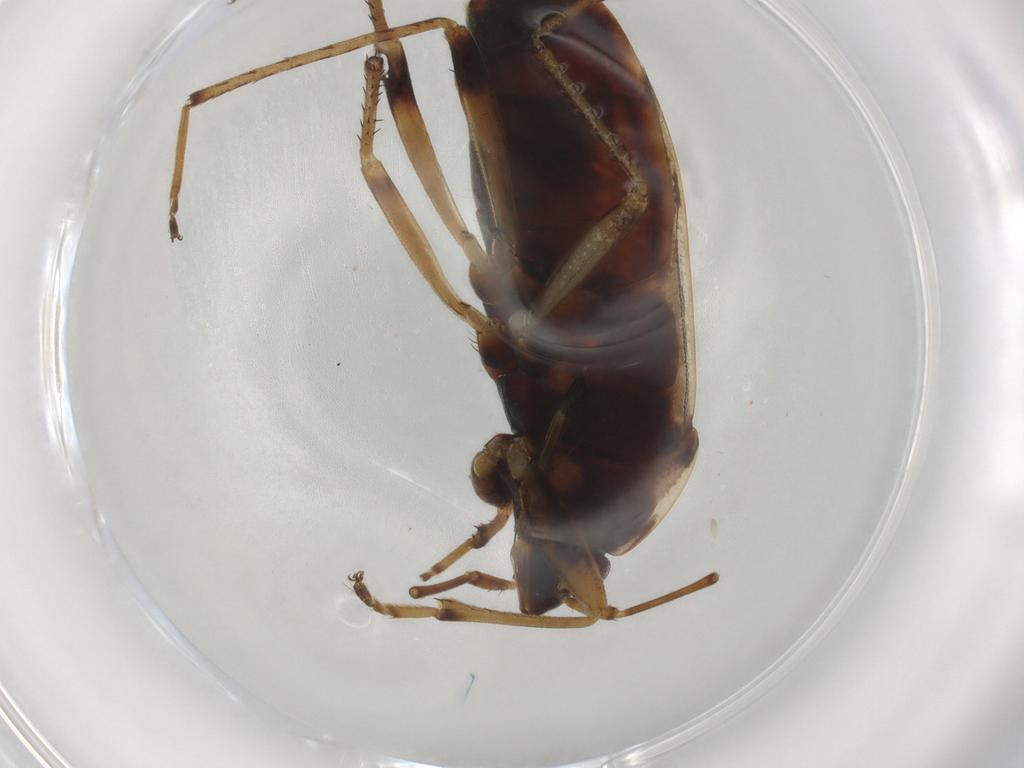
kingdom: Animalia
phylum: Arthropoda
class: Insecta
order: Hemiptera
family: Rhyparochromidae
